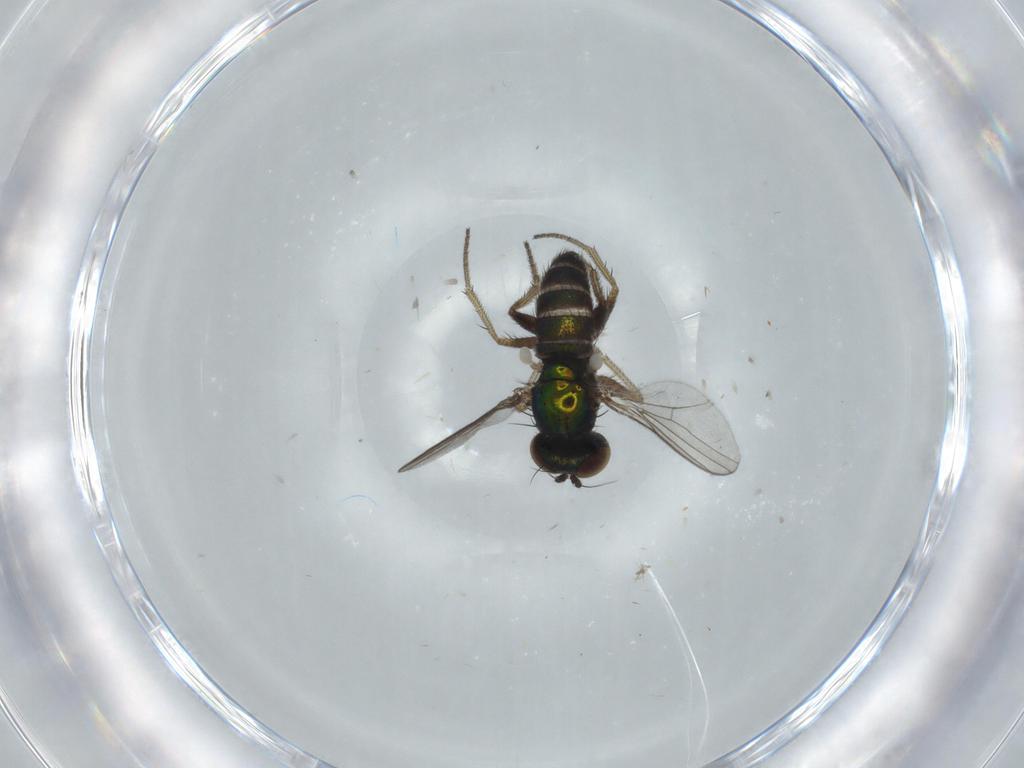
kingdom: Animalia
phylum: Arthropoda
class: Insecta
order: Diptera
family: Dolichopodidae
